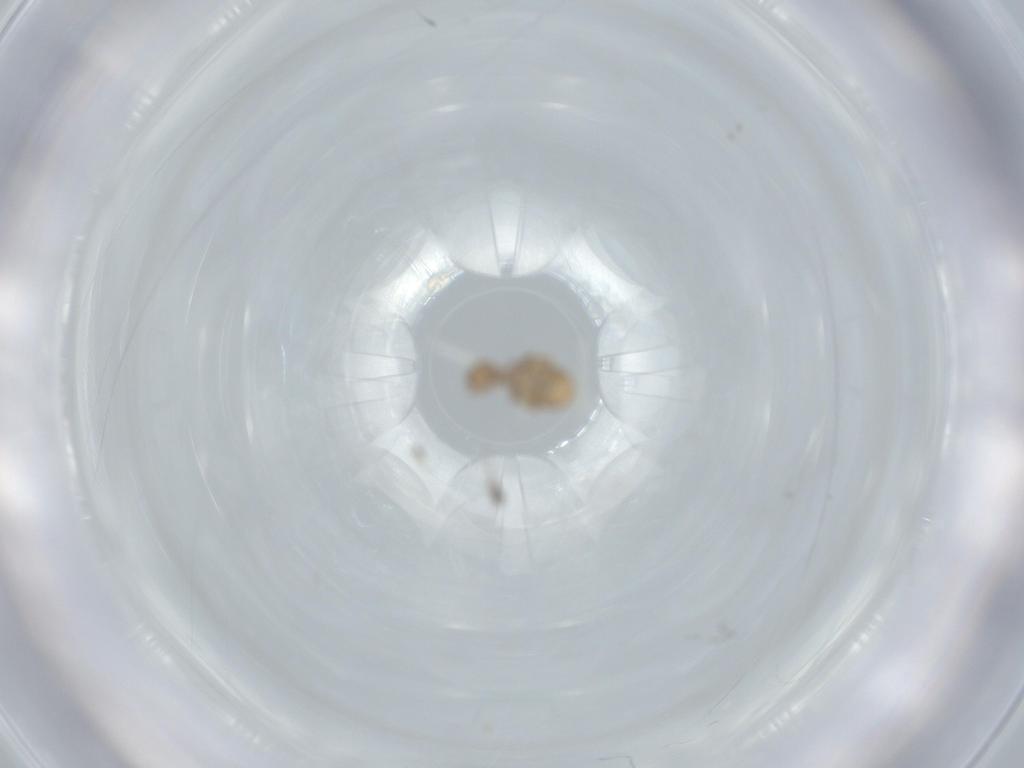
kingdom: Animalia
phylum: Arthropoda
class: Insecta
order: Psocodea
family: Liposcelididae
